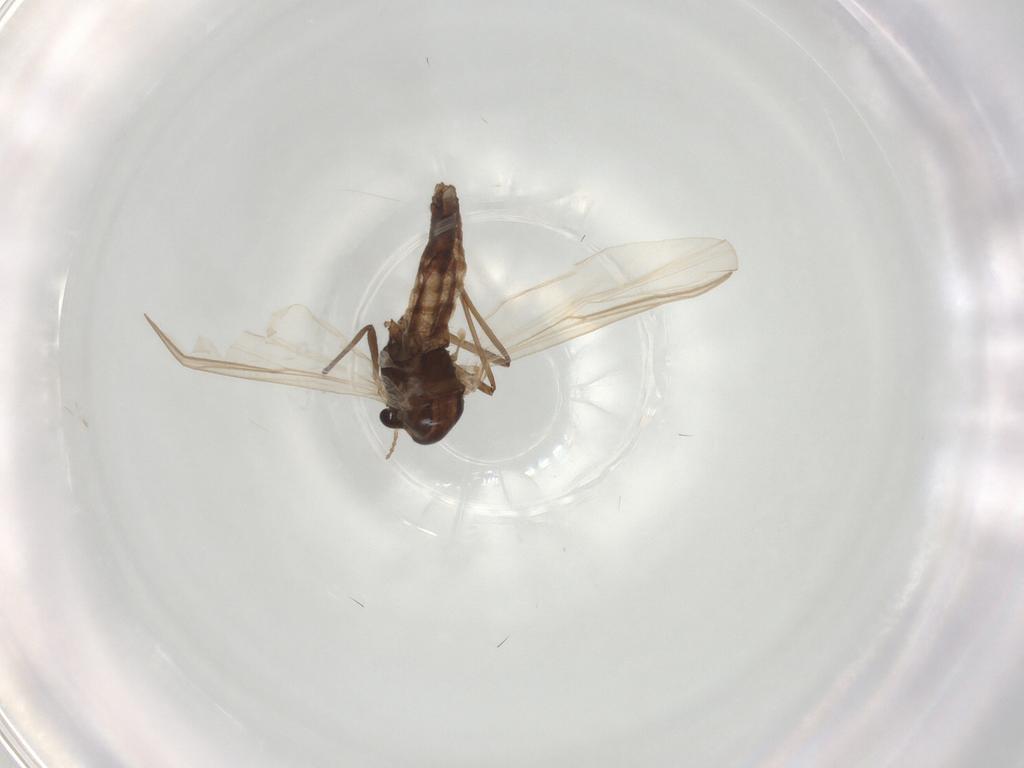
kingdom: Animalia
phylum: Arthropoda
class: Insecta
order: Diptera
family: Chironomidae
